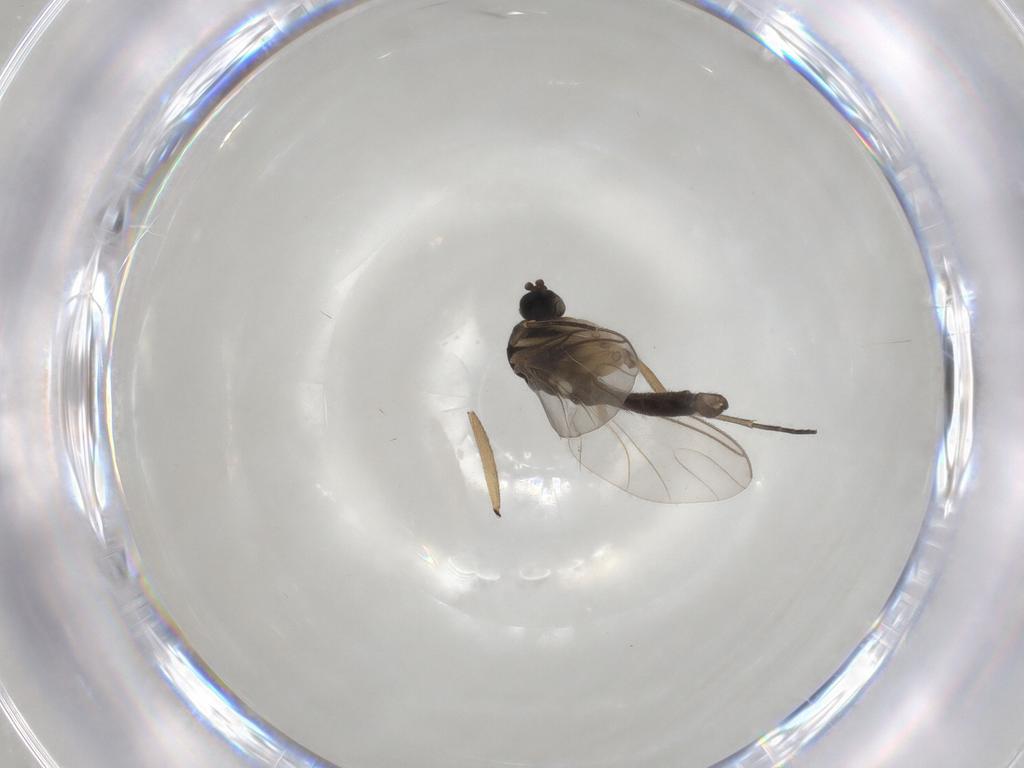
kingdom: Animalia
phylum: Arthropoda
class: Insecta
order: Diptera
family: Sciaridae
